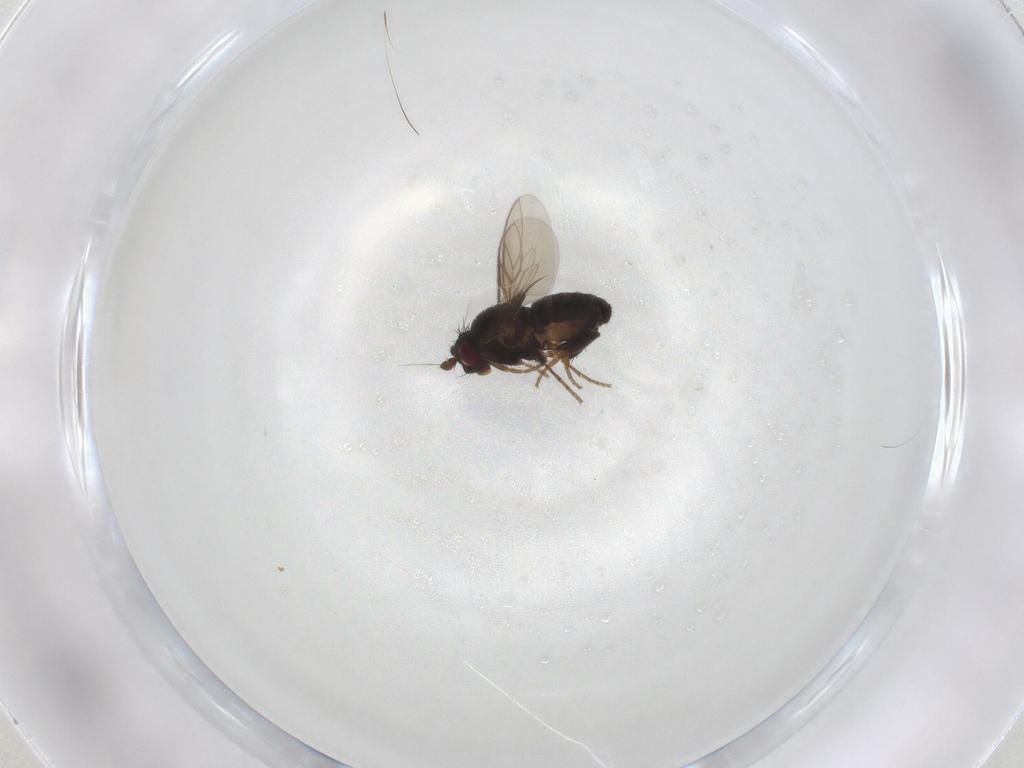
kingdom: Animalia
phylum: Arthropoda
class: Insecta
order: Diptera
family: Sphaeroceridae
